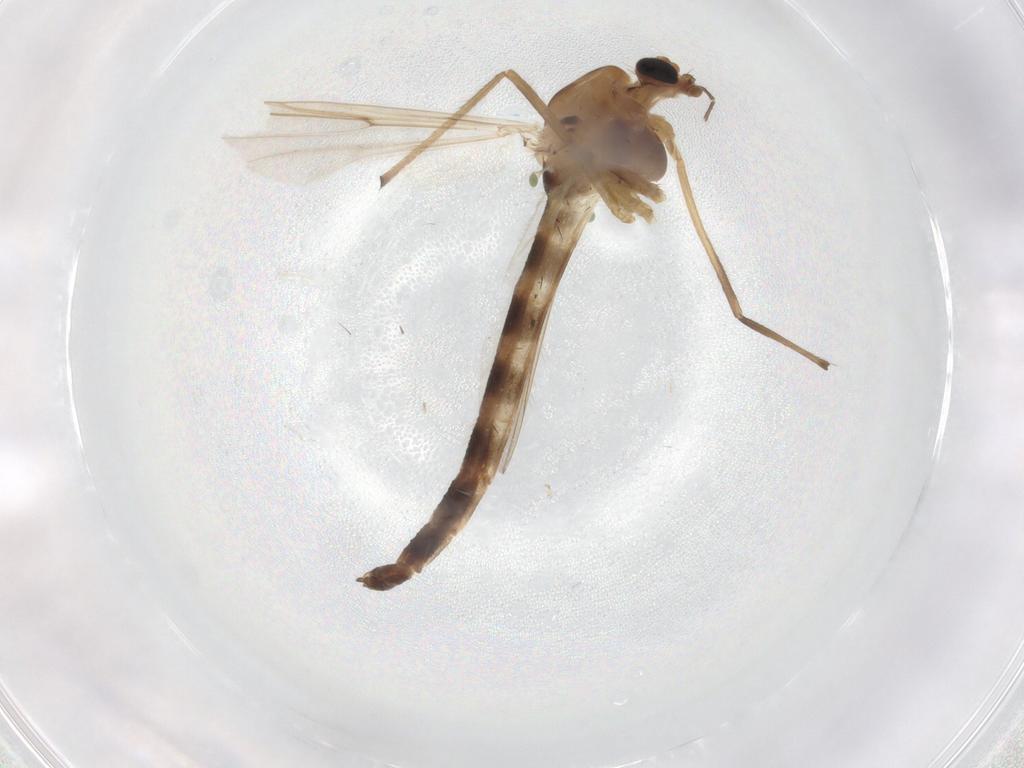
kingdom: Animalia
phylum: Arthropoda
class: Insecta
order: Diptera
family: Chironomidae
